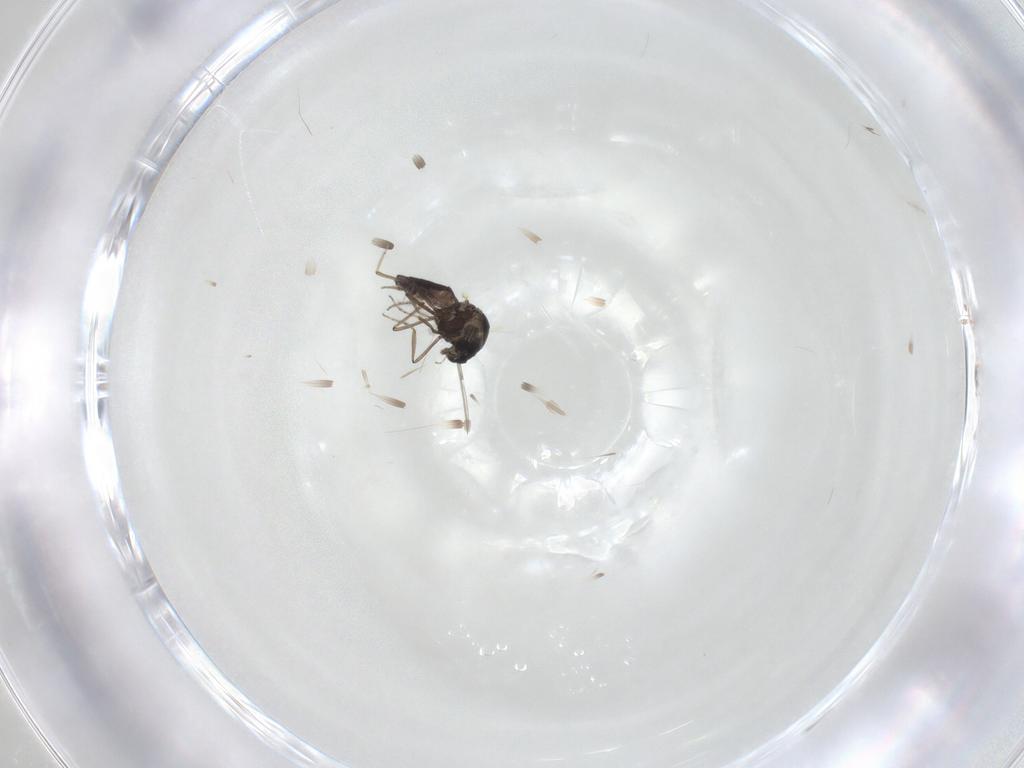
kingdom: Animalia
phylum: Arthropoda
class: Insecta
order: Diptera
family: Ceratopogonidae
